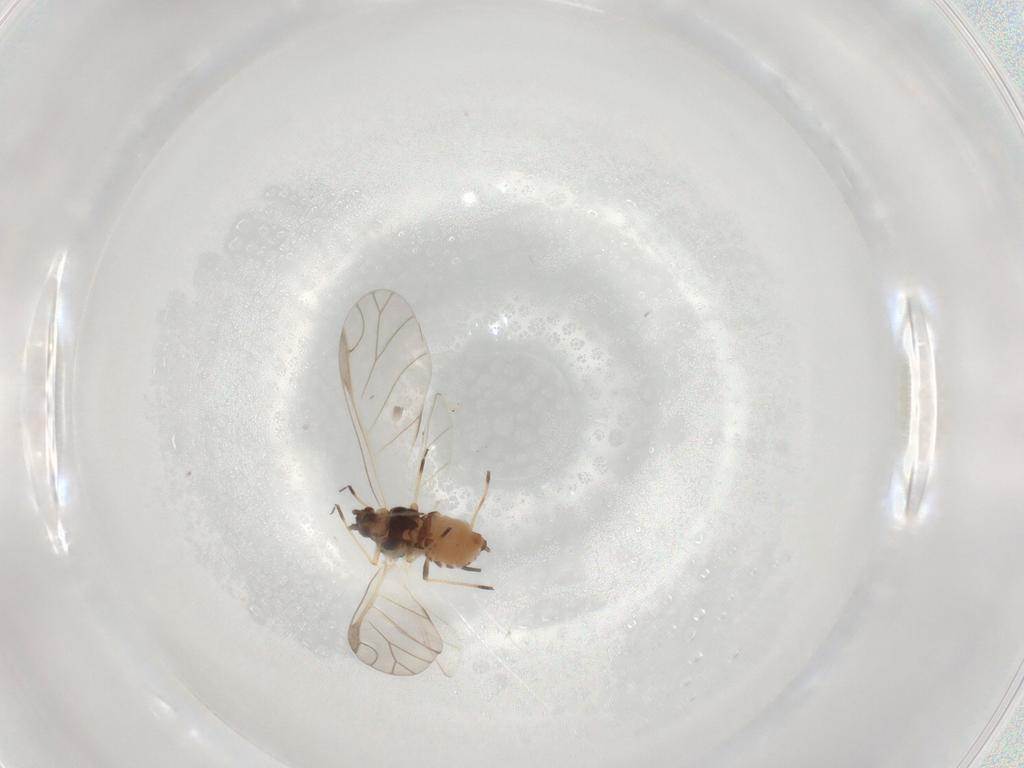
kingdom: Animalia
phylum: Arthropoda
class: Insecta
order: Hemiptera
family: Aphididae
